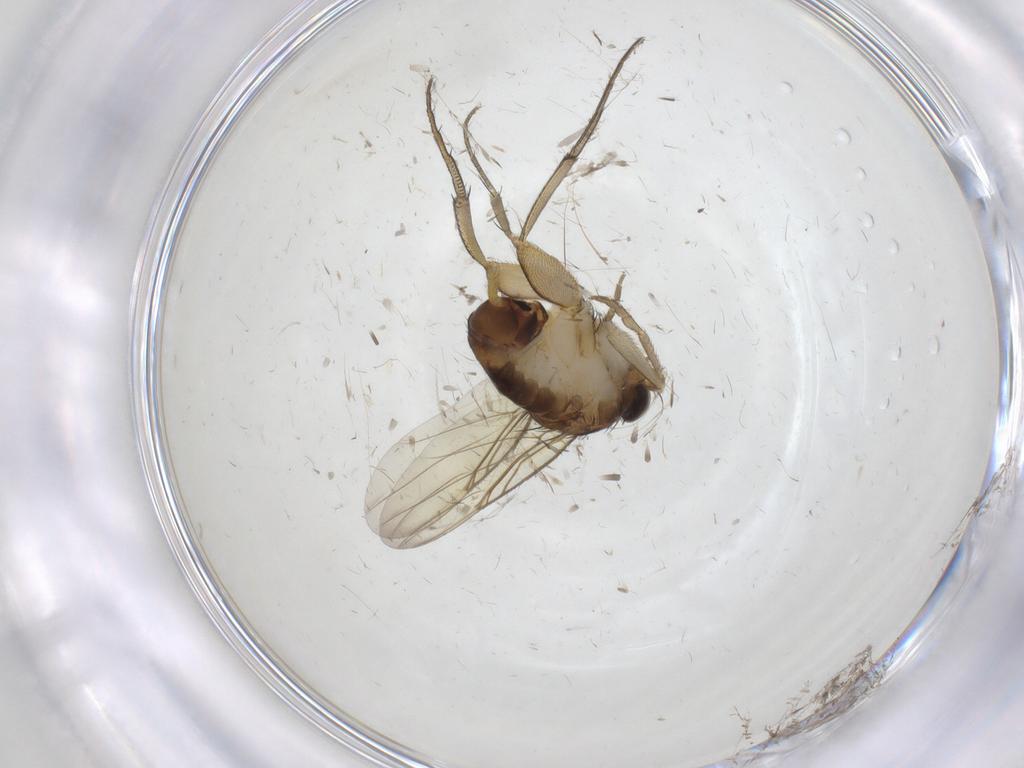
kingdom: Animalia
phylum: Arthropoda
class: Insecta
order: Diptera
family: Phoridae
